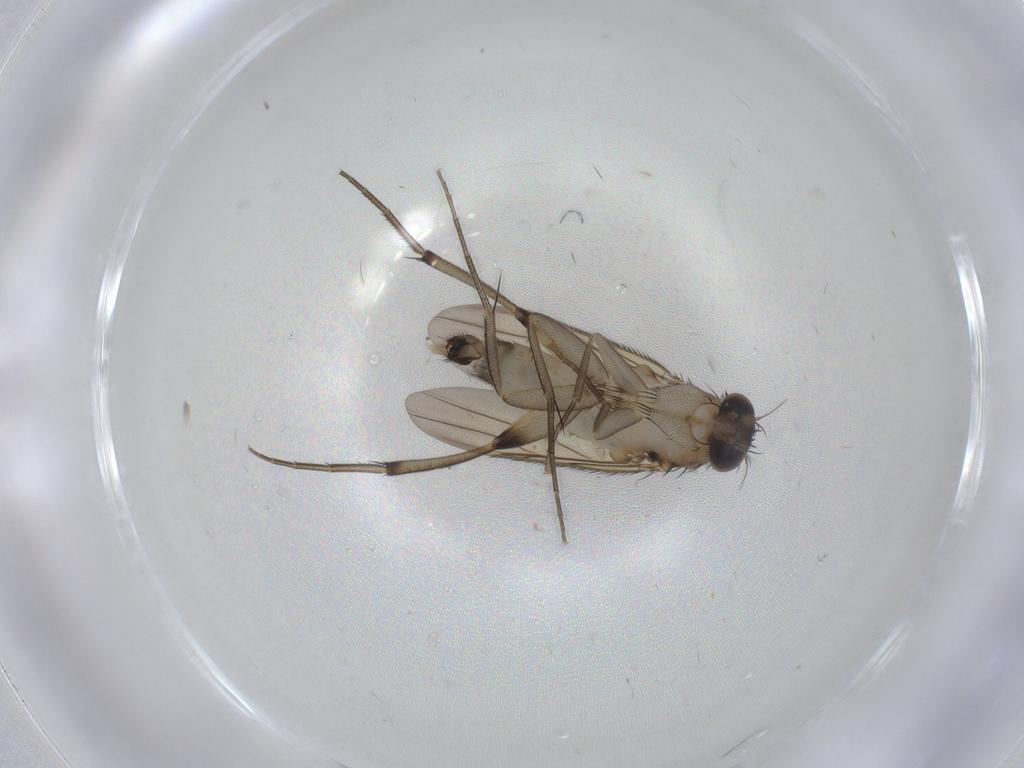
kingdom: Animalia
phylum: Arthropoda
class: Insecta
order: Diptera
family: Phoridae
